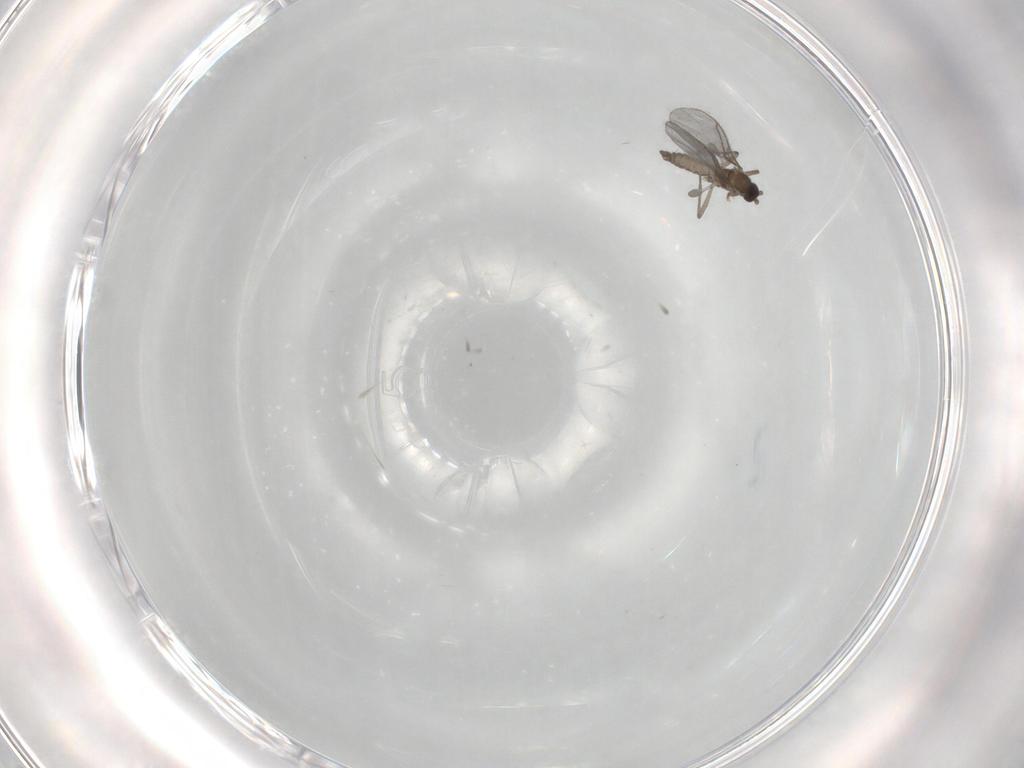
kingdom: Animalia
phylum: Arthropoda
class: Insecta
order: Diptera
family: Sciaridae
